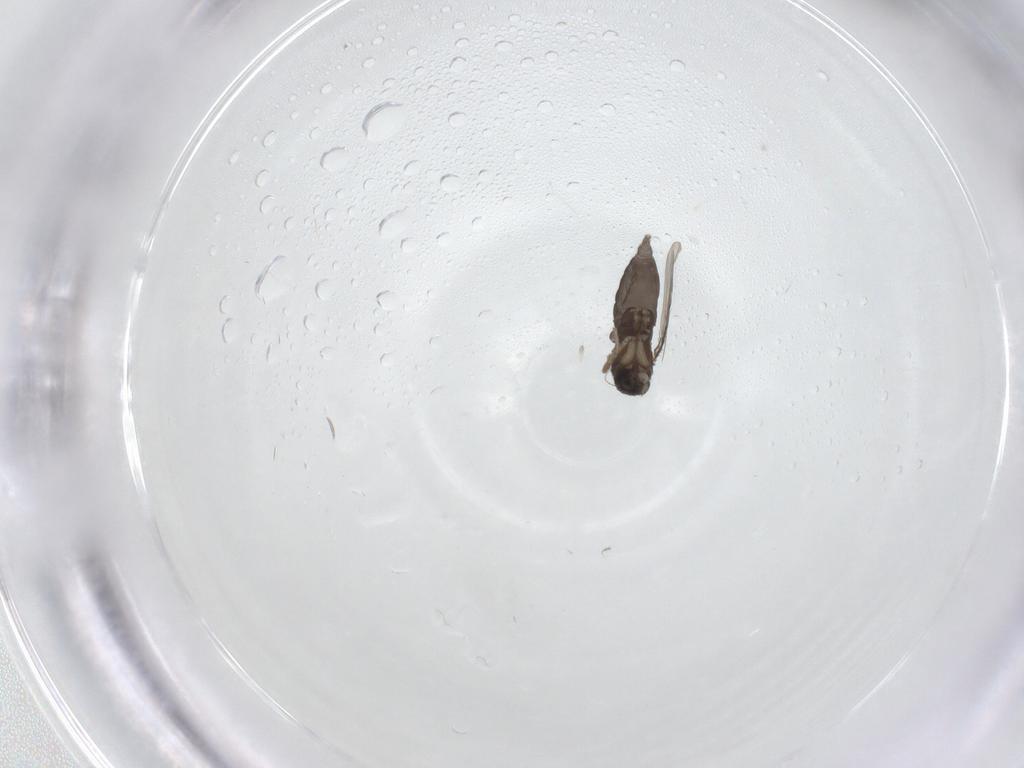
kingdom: Animalia
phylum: Arthropoda
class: Insecta
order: Diptera
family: Phoridae
